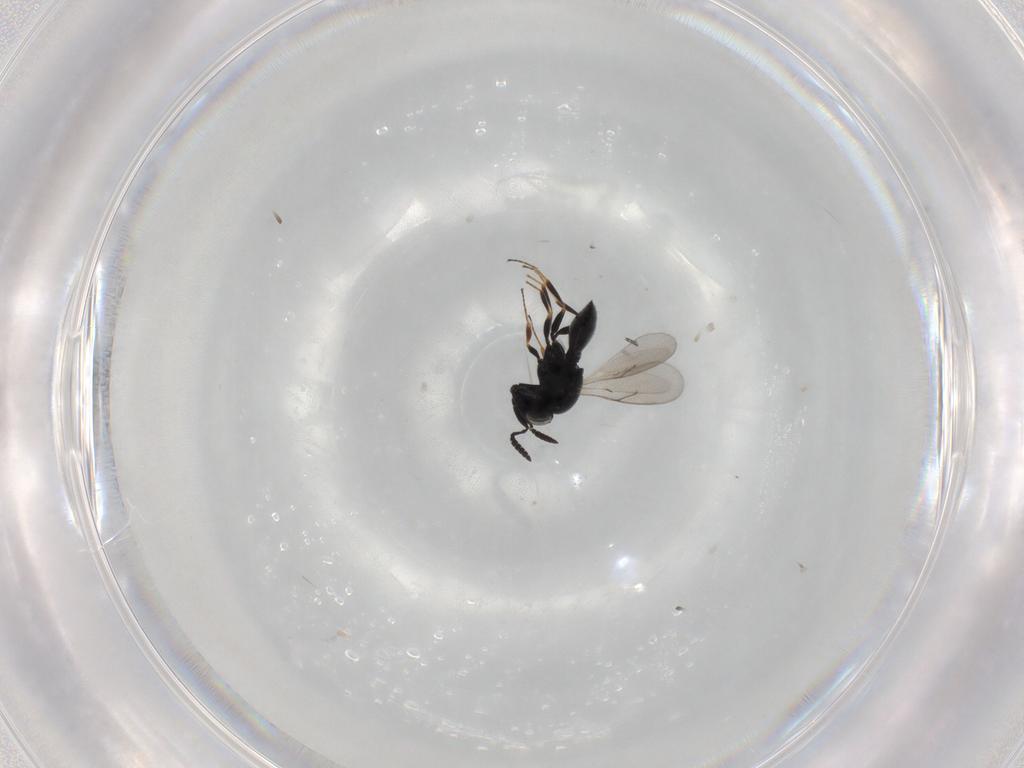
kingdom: Animalia
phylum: Arthropoda
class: Insecta
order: Hymenoptera
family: Scelionidae
